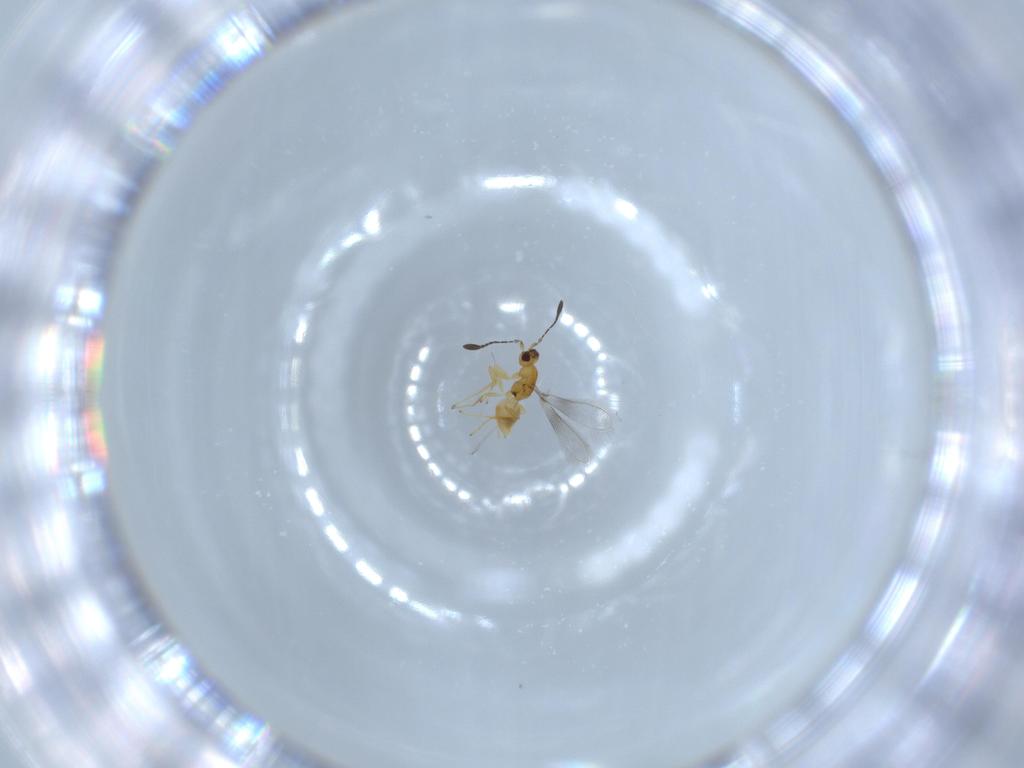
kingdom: Animalia
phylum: Arthropoda
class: Insecta
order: Hymenoptera
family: Mymaridae
